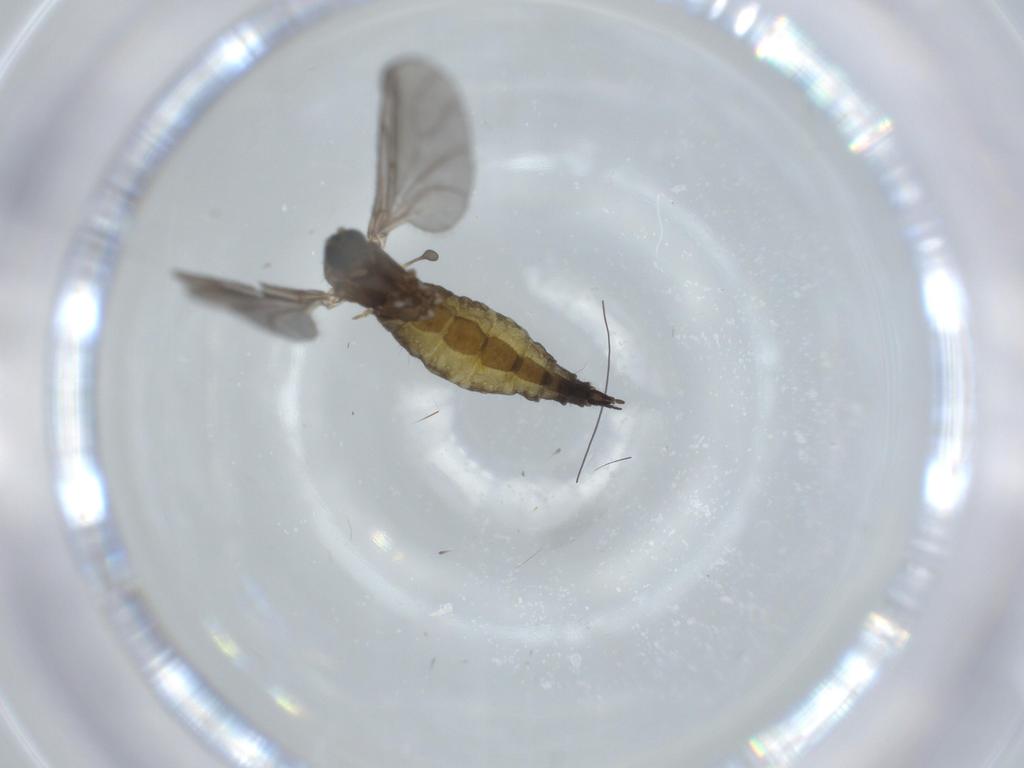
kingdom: Animalia
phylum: Arthropoda
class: Insecta
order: Diptera
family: Sciaridae
